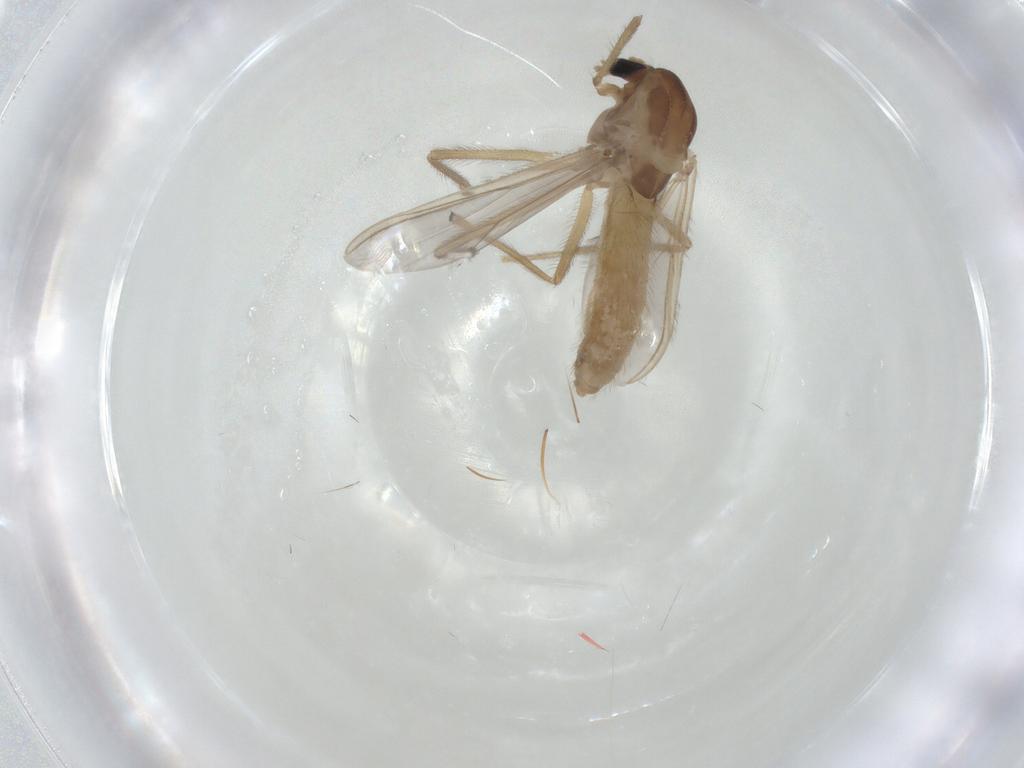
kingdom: Animalia
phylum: Arthropoda
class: Insecta
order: Diptera
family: Chironomidae
